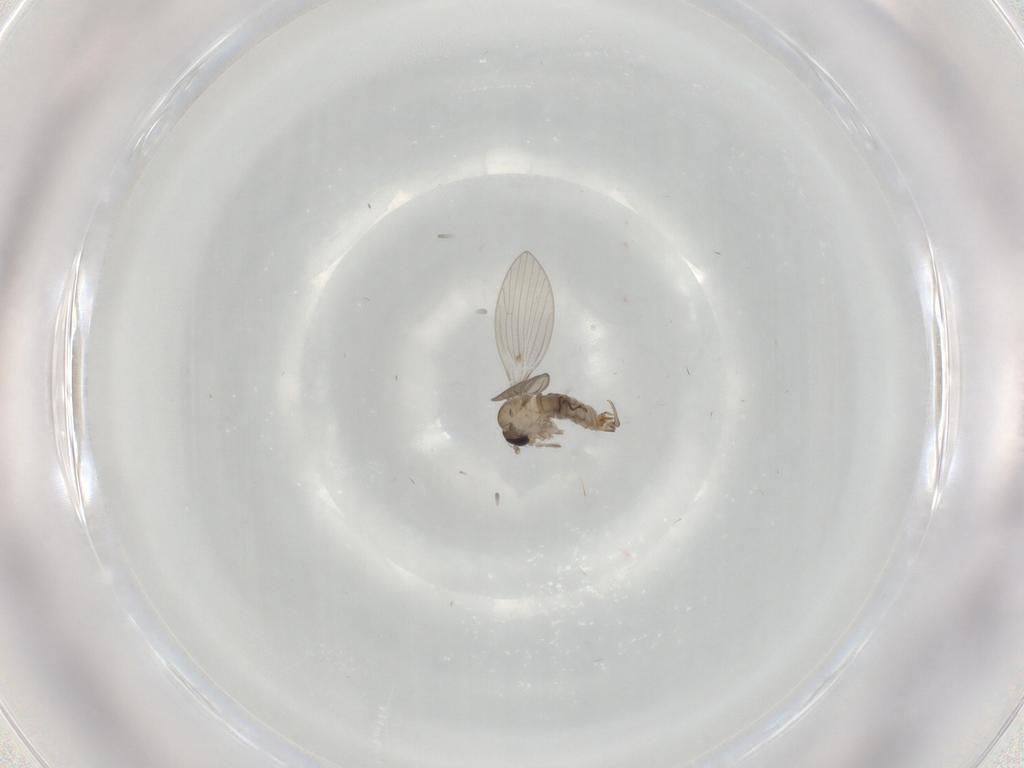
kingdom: Animalia
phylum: Arthropoda
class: Insecta
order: Diptera
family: Psychodidae
